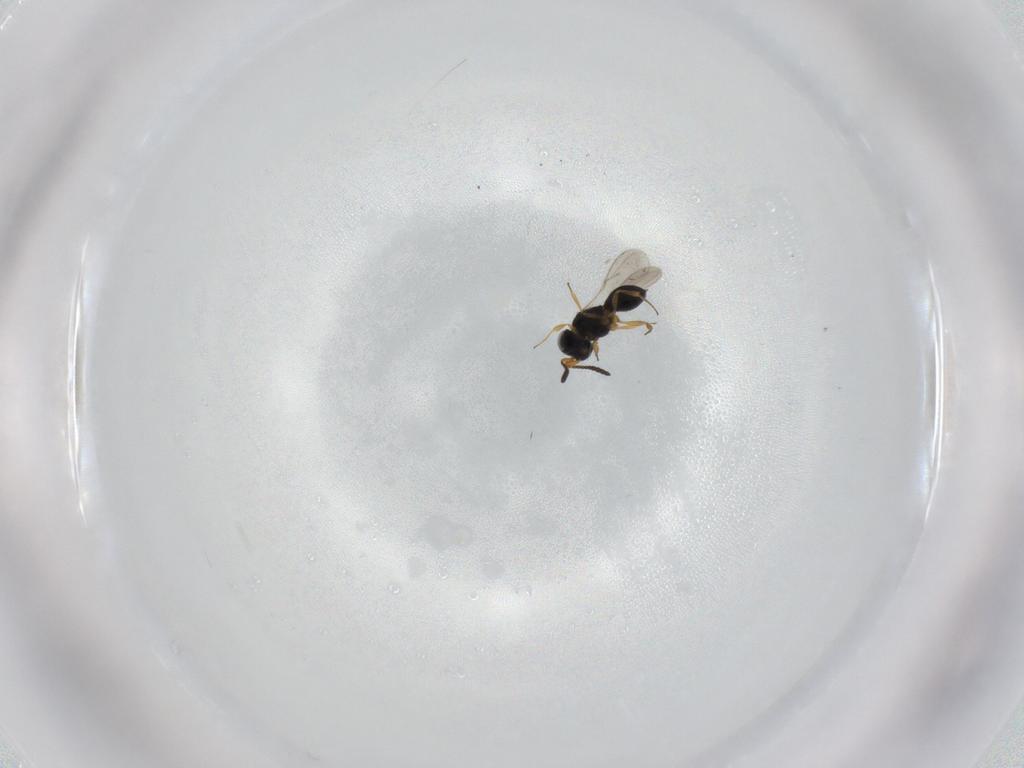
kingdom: Animalia
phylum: Arthropoda
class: Insecta
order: Hymenoptera
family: Scelionidae
